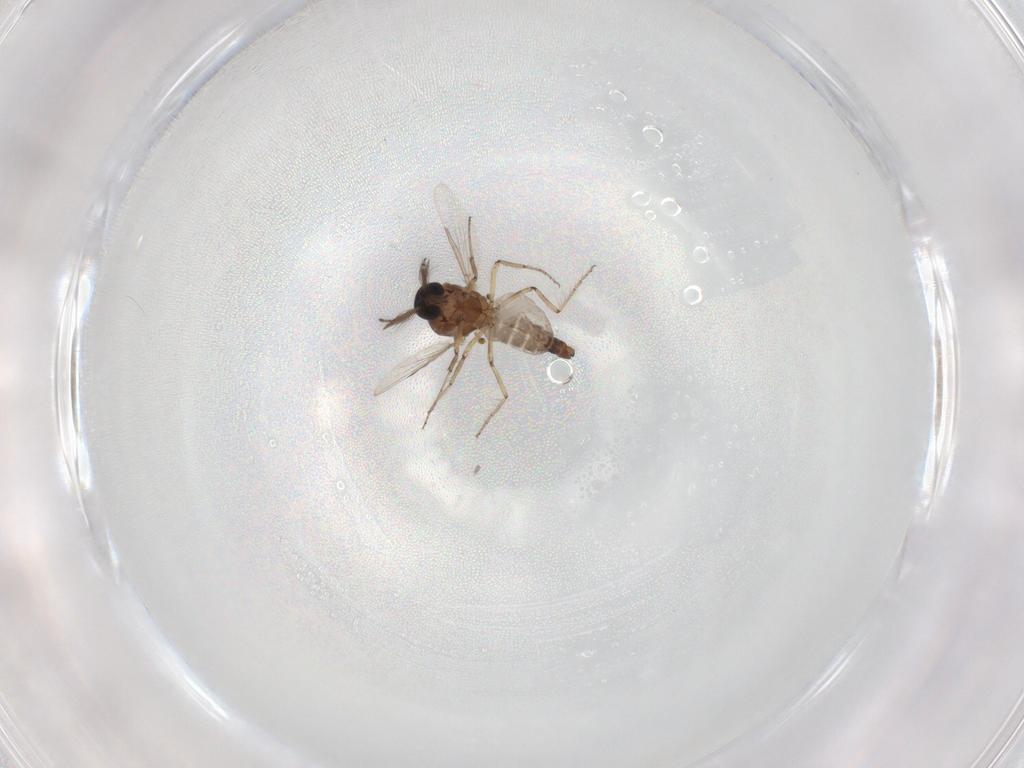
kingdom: Animalia
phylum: Arthropoda
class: Insecta
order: Diptera
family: Ceratopogonidae
